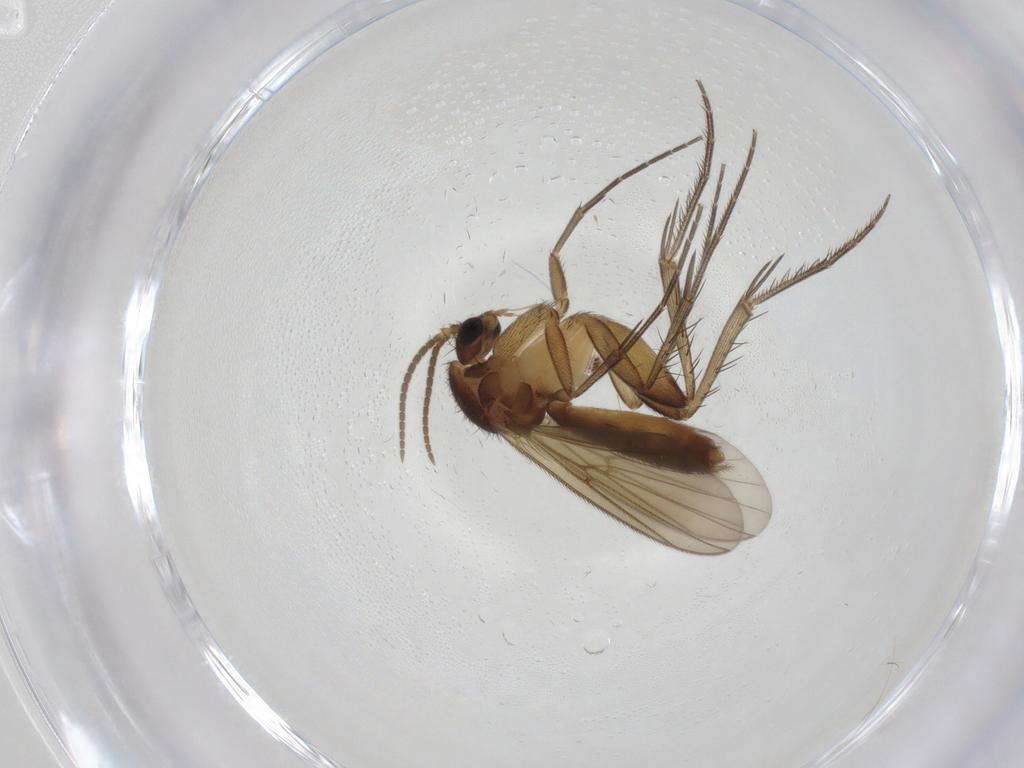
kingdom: Animalia
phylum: Arthropoda
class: Insecta
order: Diptera
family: Limoniidae
